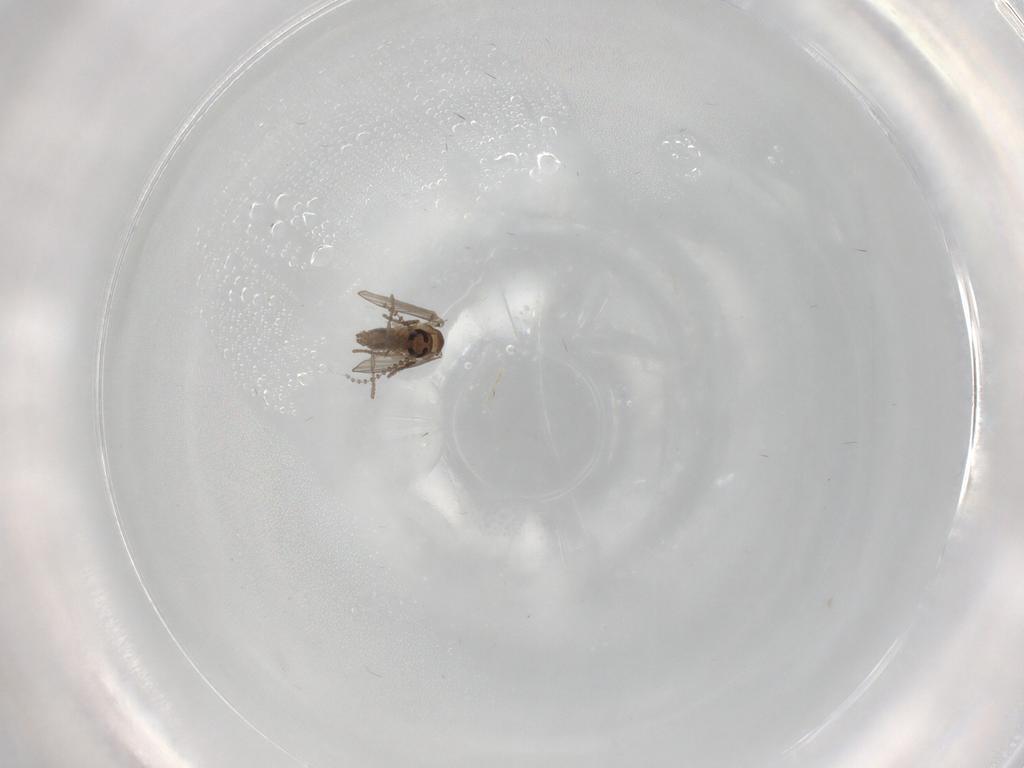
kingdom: Animalia
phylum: Arthropoda
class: Insecta
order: Diptera
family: Psychodidae
